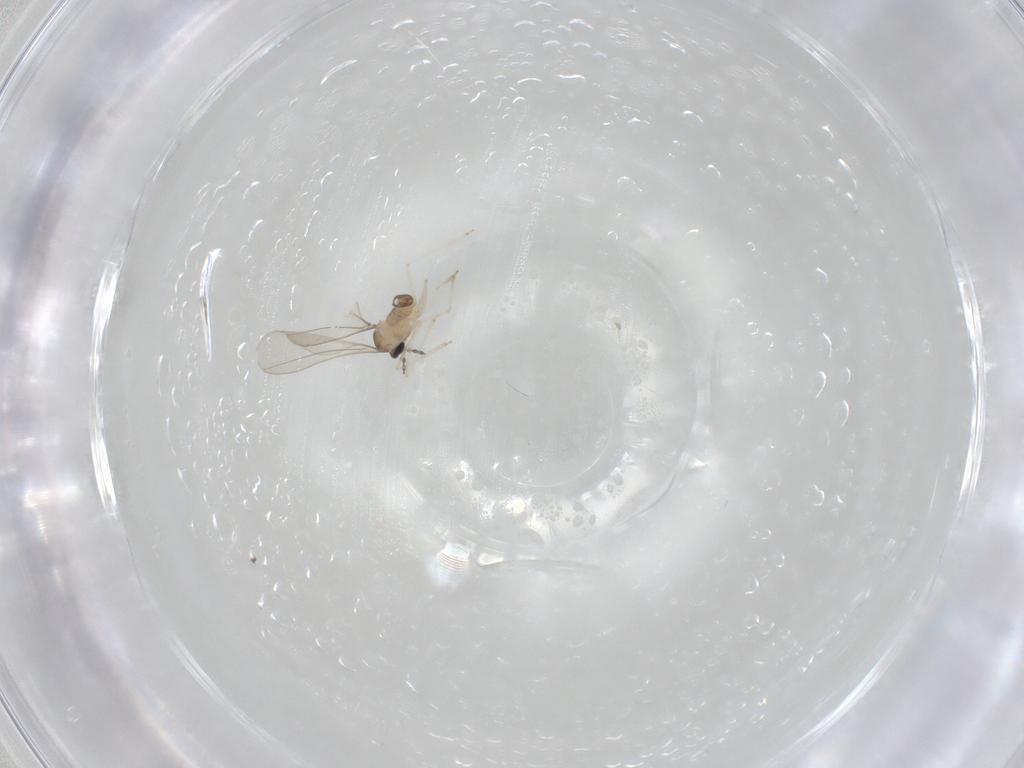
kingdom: Animalia
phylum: Arthropoda
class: Insecta
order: Diptera
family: Cecidomyiidae
